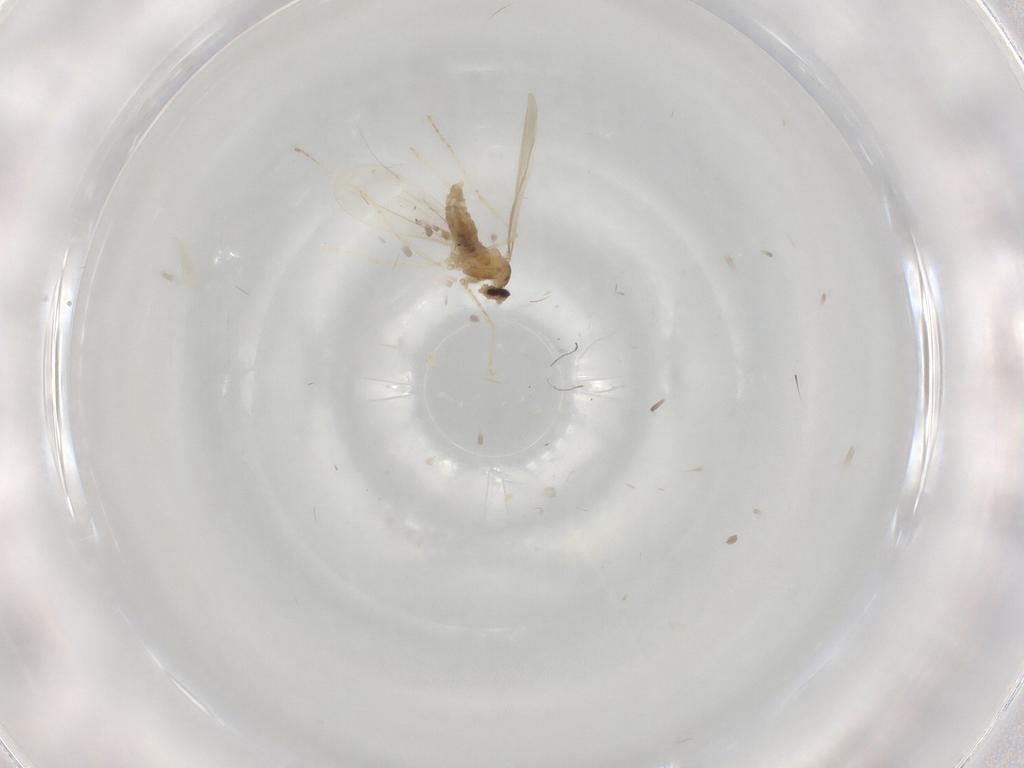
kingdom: Animalia
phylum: Arthropoda
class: Insecta
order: Diptera
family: Cecidomyiidae
